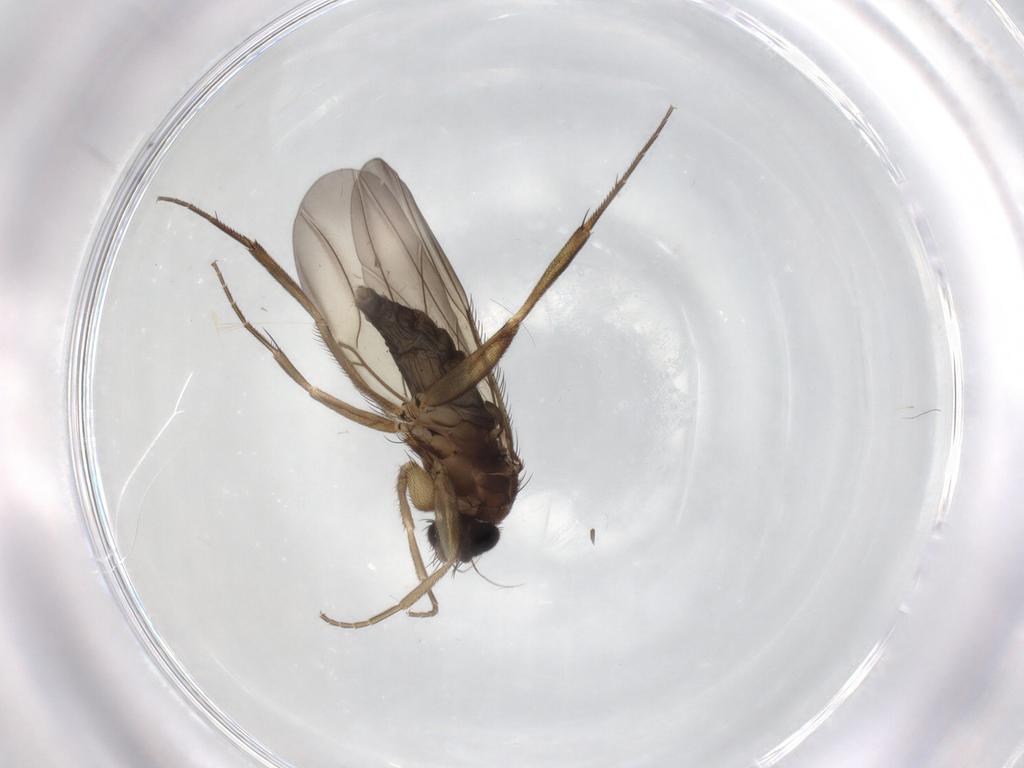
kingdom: Animalia
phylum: Arthropoda
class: Insecta
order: Diptera
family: Phoridae
